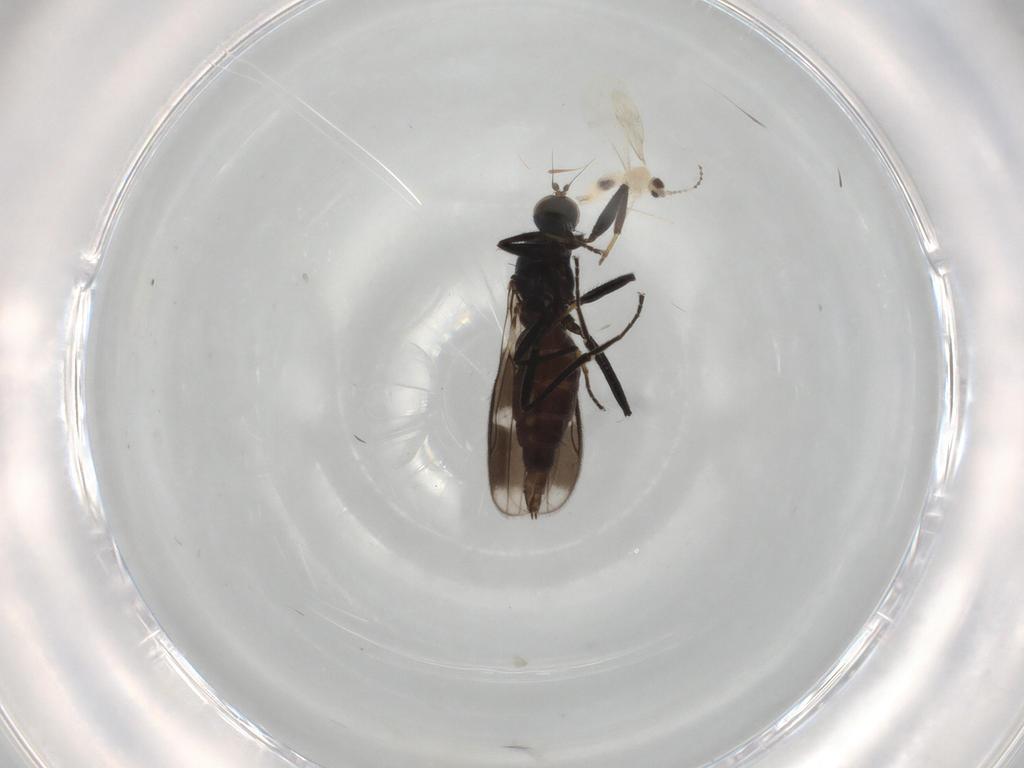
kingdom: Animalia
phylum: Arthropoda
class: Insecta
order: Diptera
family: Hybotidae
